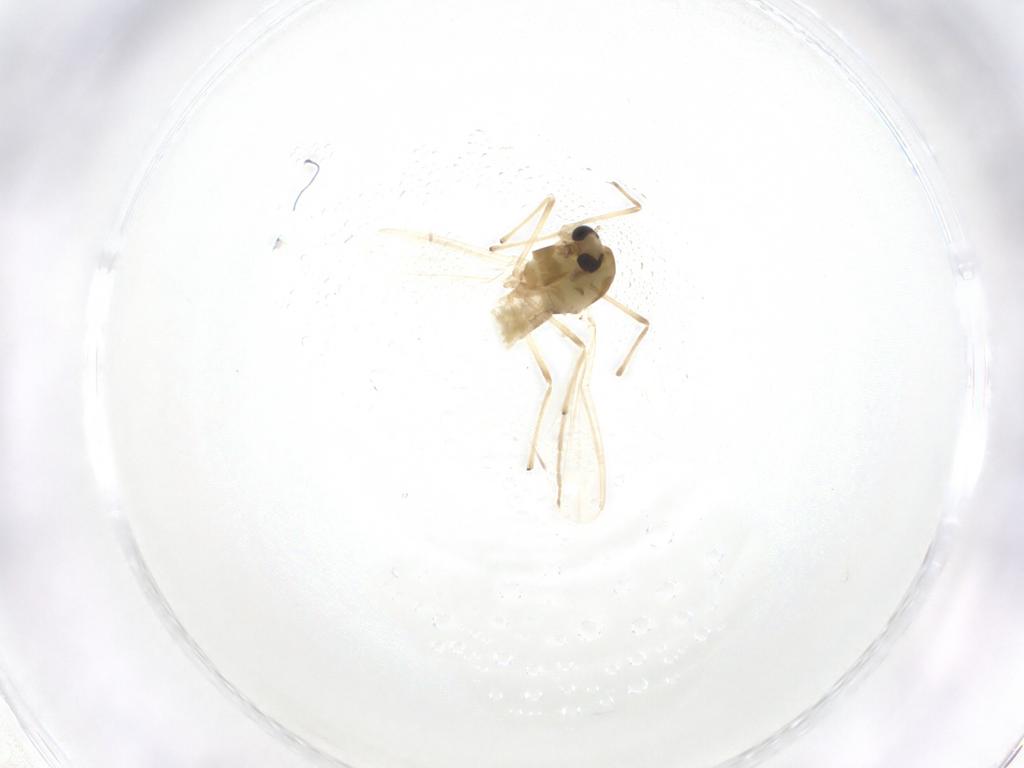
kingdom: Animalia
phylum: Arthropoda
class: Insecta
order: Diptera
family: Chironomidae
